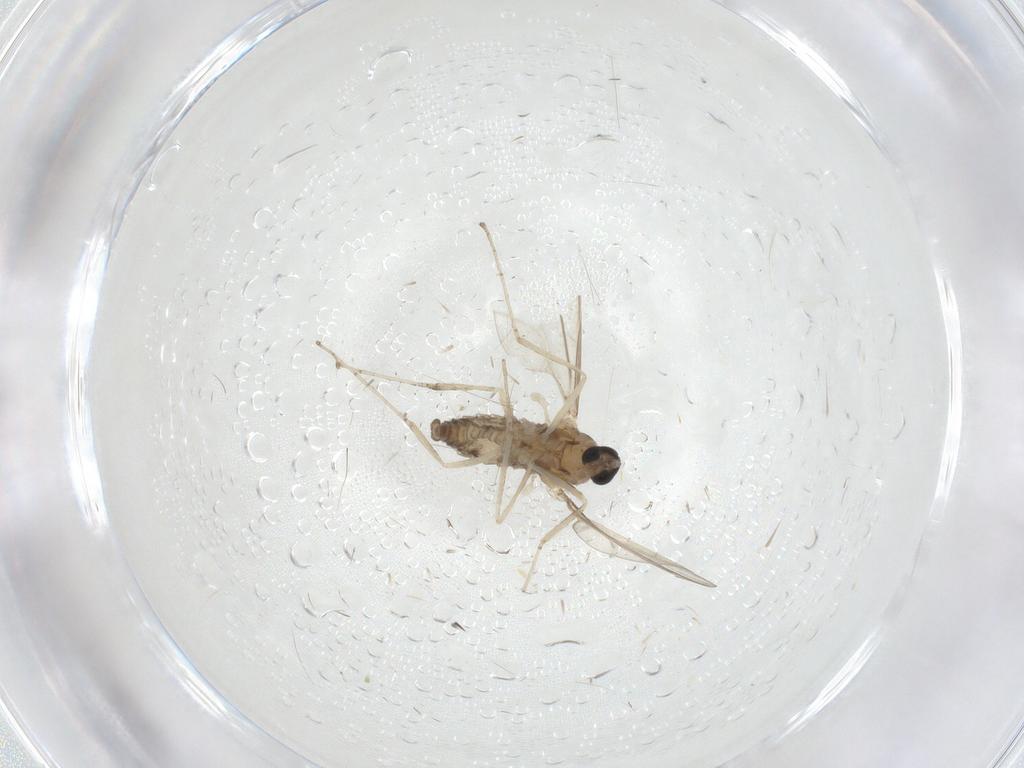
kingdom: Animalia
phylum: Arthropoda
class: Insecta
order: Diptera
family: Cecidomyiidae
